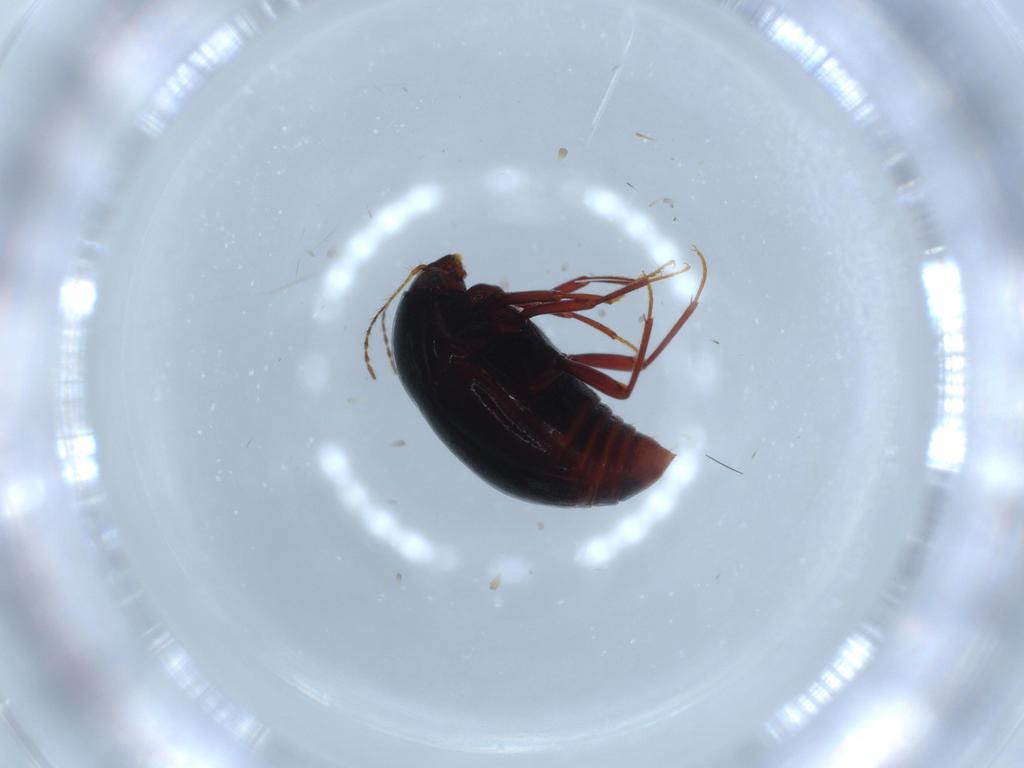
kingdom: Animalia
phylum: Arthropoda
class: Insecta
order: Coleoptera
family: Staphylinidae
